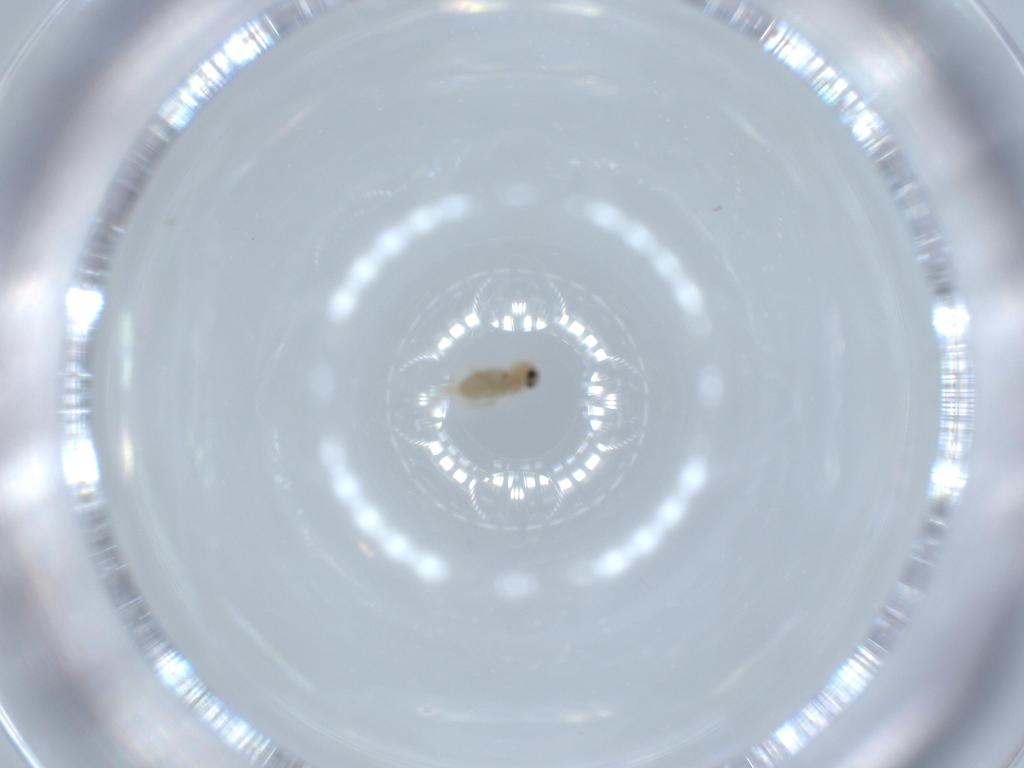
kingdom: Animalia
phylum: Arthropoda
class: Insecta
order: Diptera
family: Cecidomyiidae
